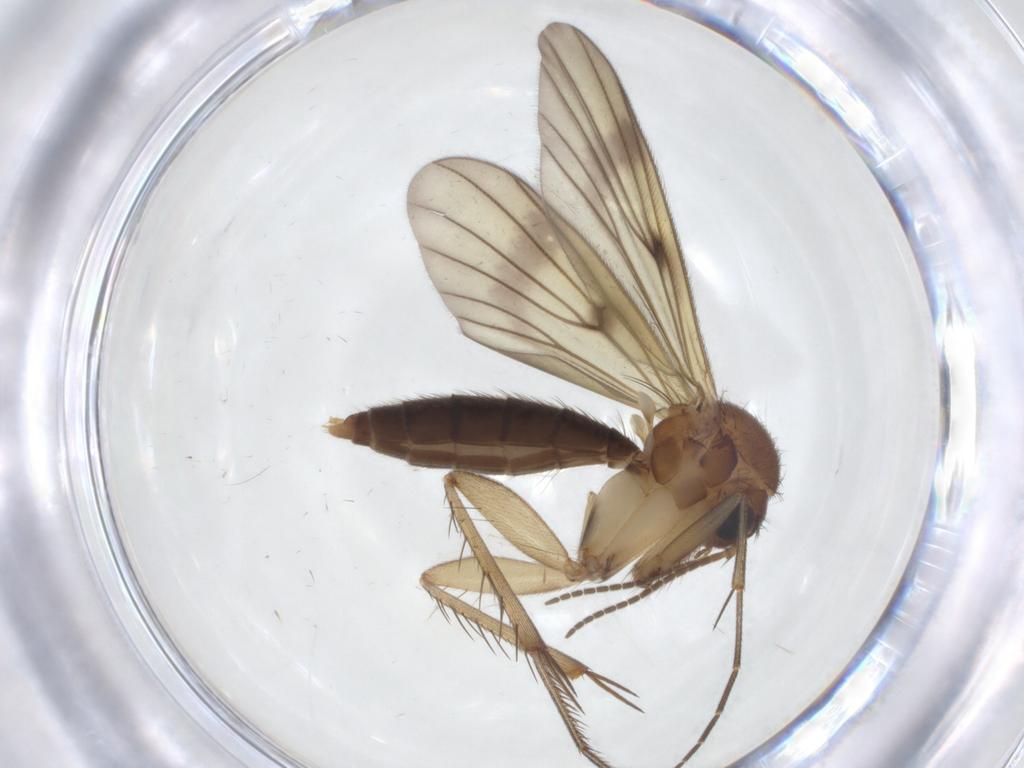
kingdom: Animalia
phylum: Arthropoda
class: Insecta
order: Diptera
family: Mycetophilidae
